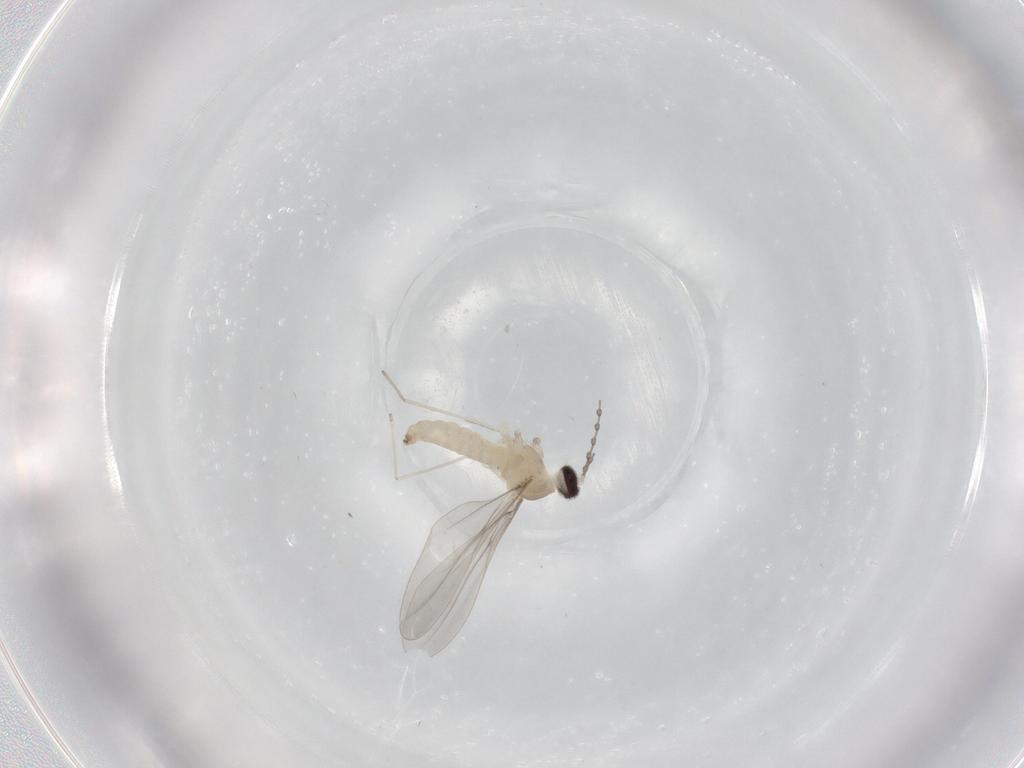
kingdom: Animalia
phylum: Arthropoda
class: Insecta
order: Diptera
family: Cecidomyiidae
